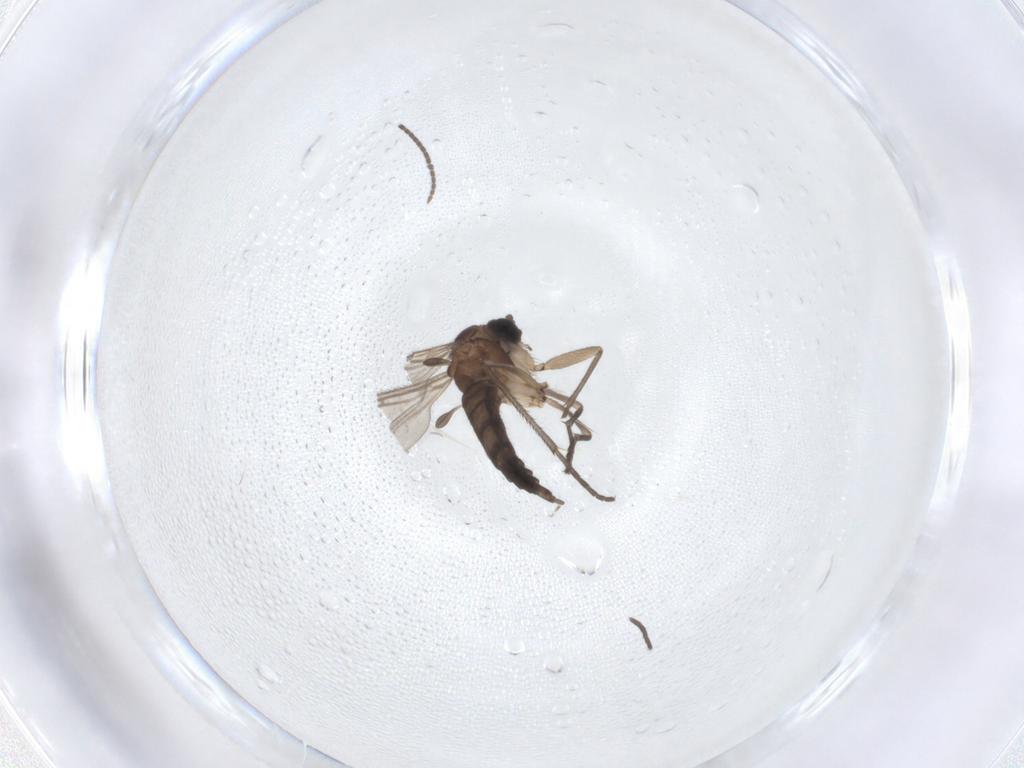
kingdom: Animalia
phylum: Arthropoda
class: Insecta
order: Diptera
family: Sciaridae
